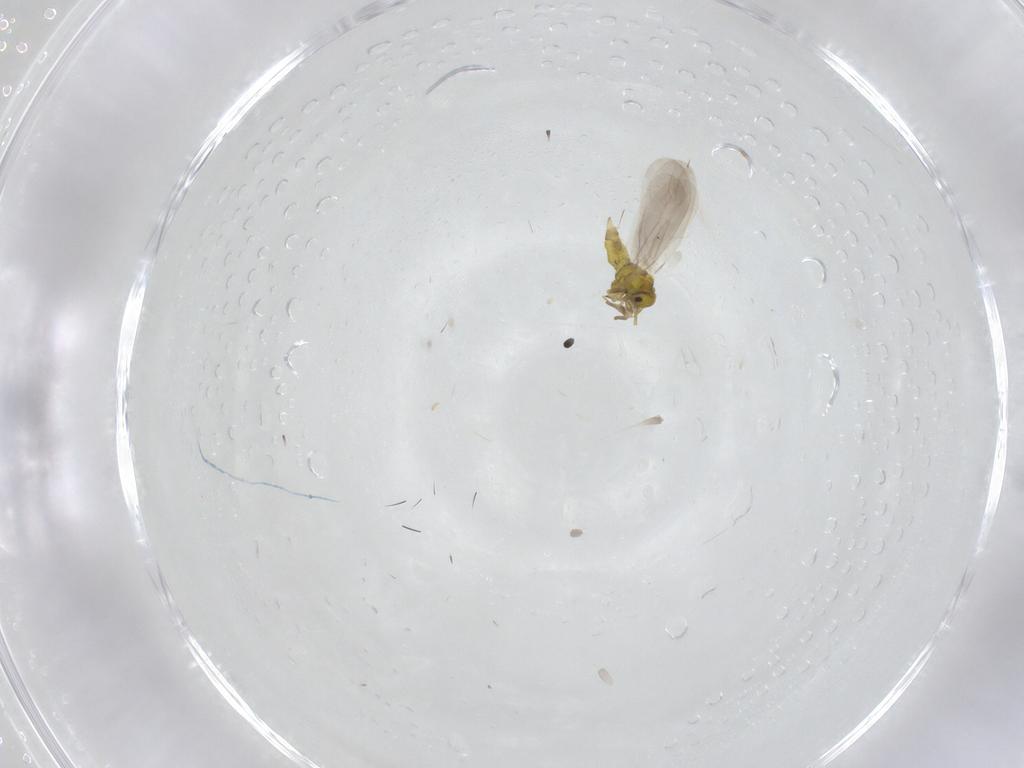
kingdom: Animalia
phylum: Arthropoda
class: Insecta
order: Hemiptera
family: Aleyrodidae
